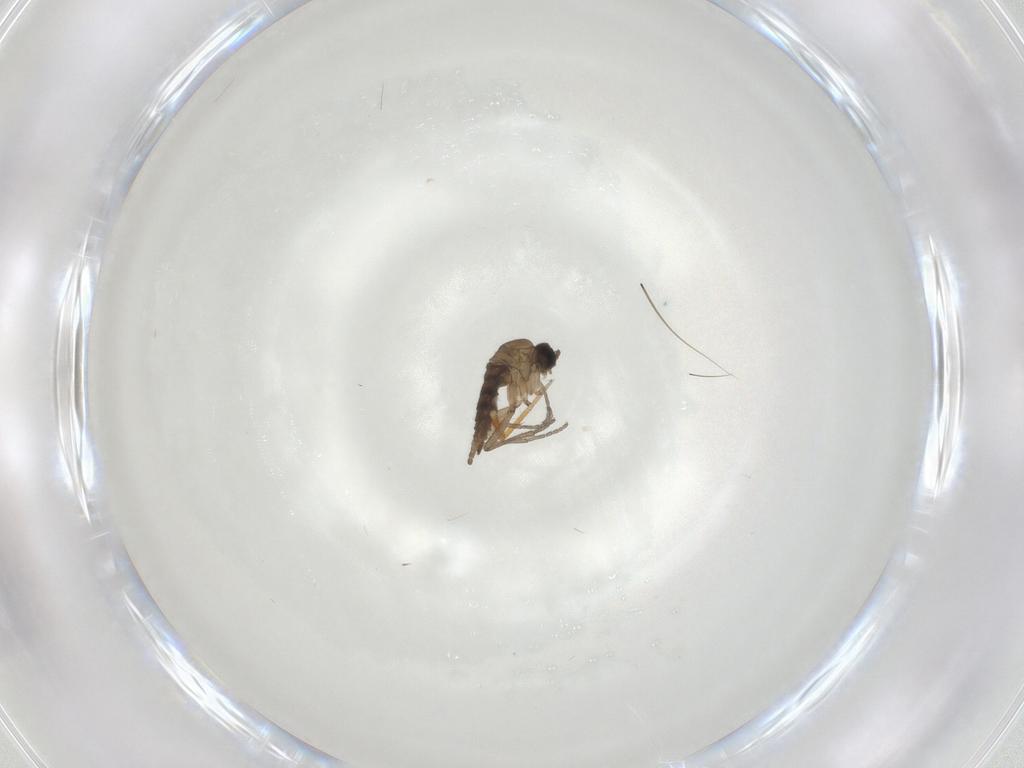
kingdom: Animalia
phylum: Arthropoda
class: Insecta
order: Diptera
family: Sciaridae
